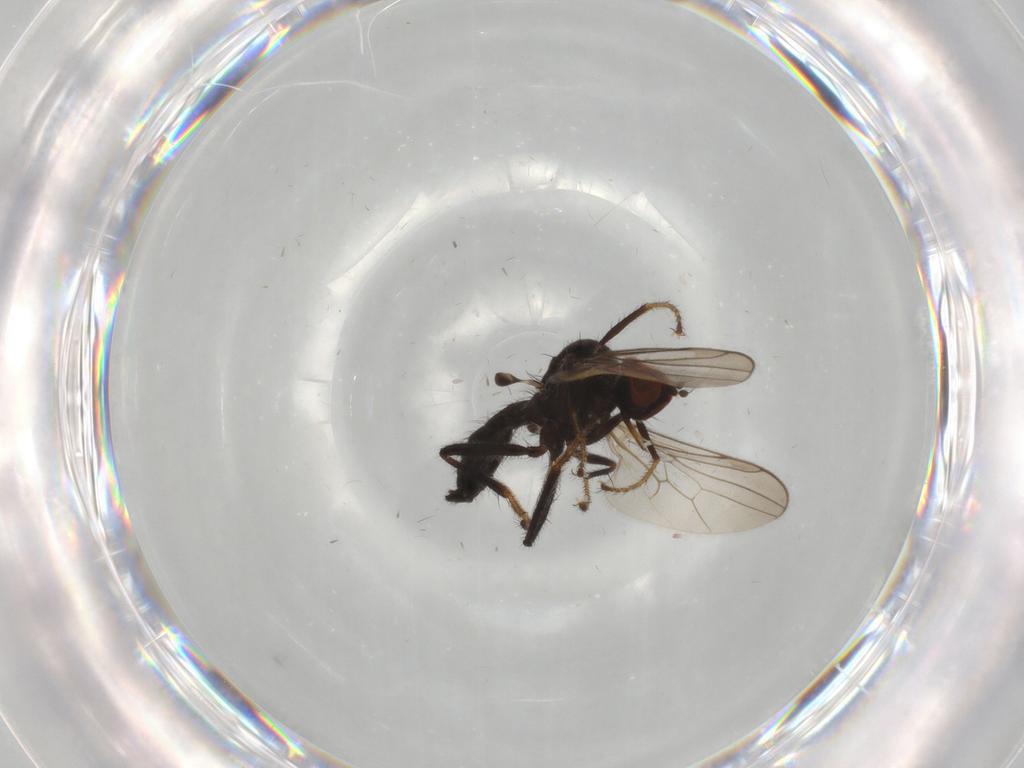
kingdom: Animalia
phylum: Arthropoda
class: Insecta
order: Diptera
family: Hybotidae
